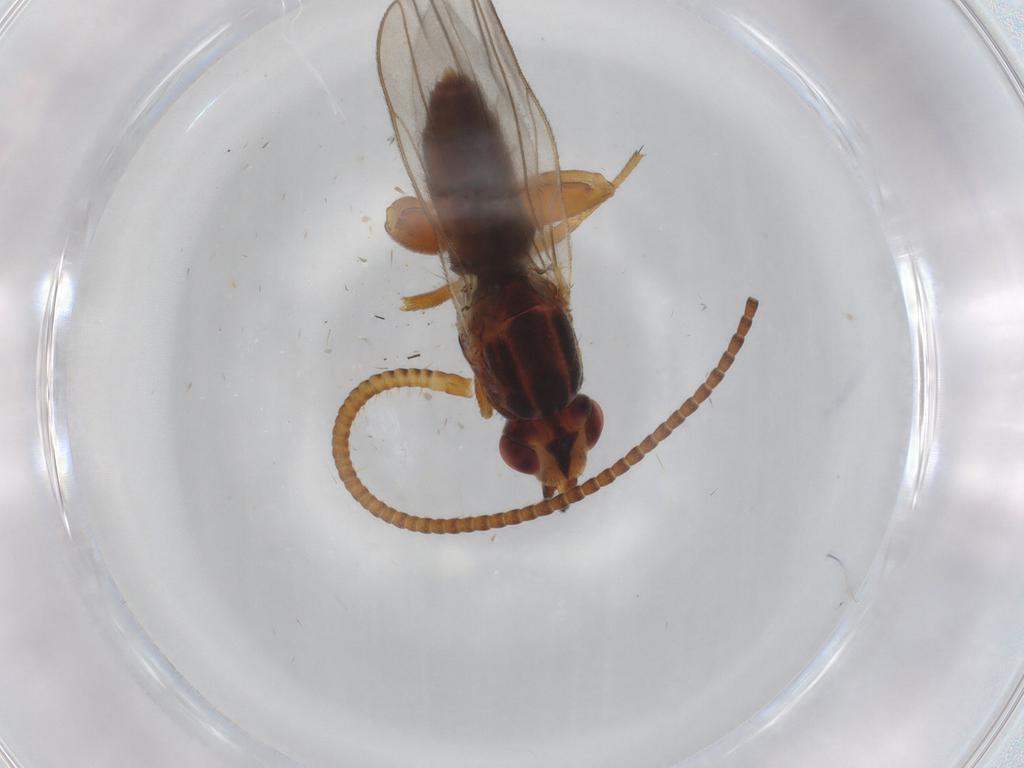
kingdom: Animalia
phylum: Arthropoda
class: Insecta
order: Diptera
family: Chloropidae
